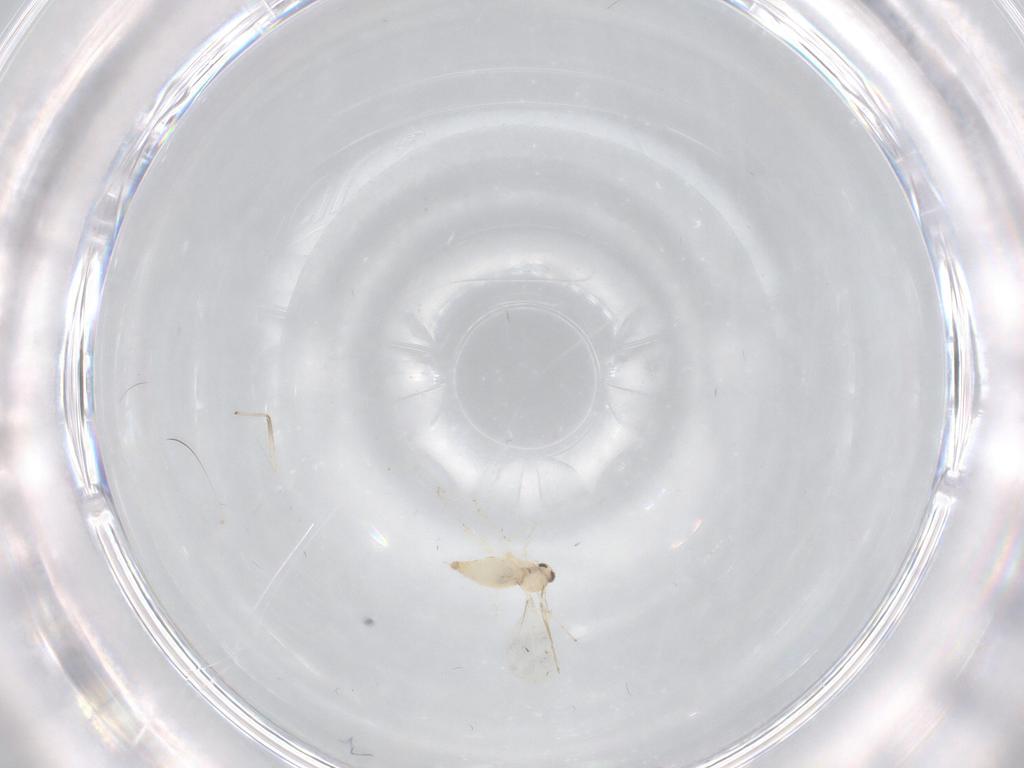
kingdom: Animalia
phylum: Arthropoda
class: Insecta
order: Diptera
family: Chironomidae
